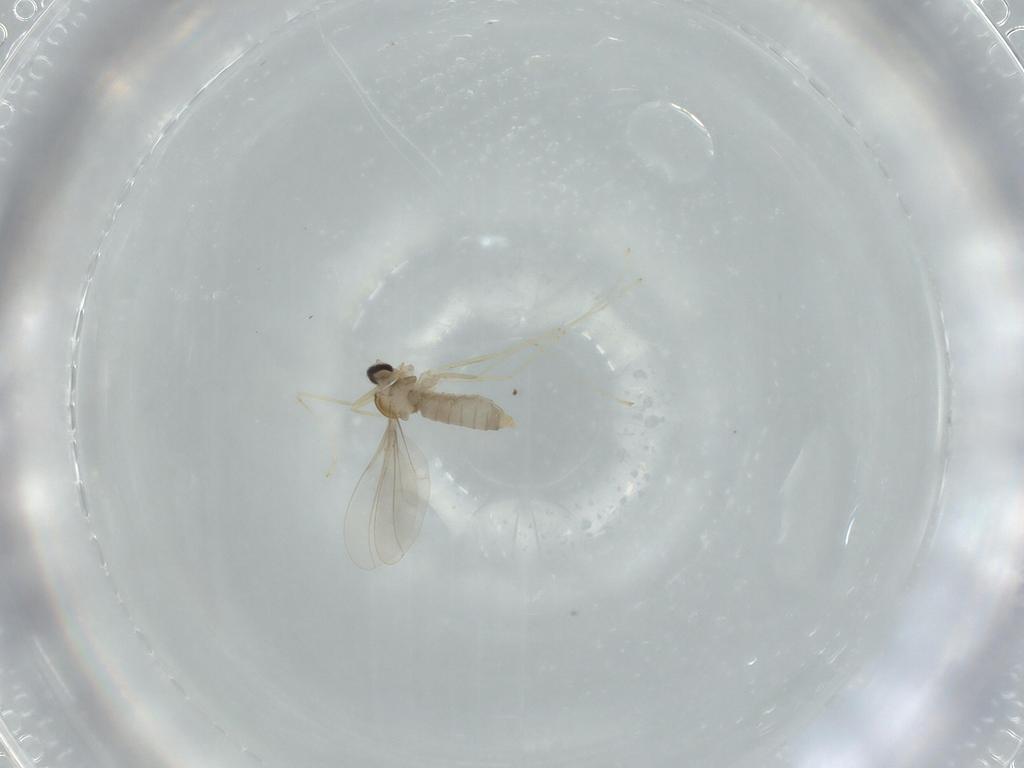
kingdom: Animalia
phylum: Arthropoda
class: Insecta
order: Diptera
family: Cecidomyiidae
